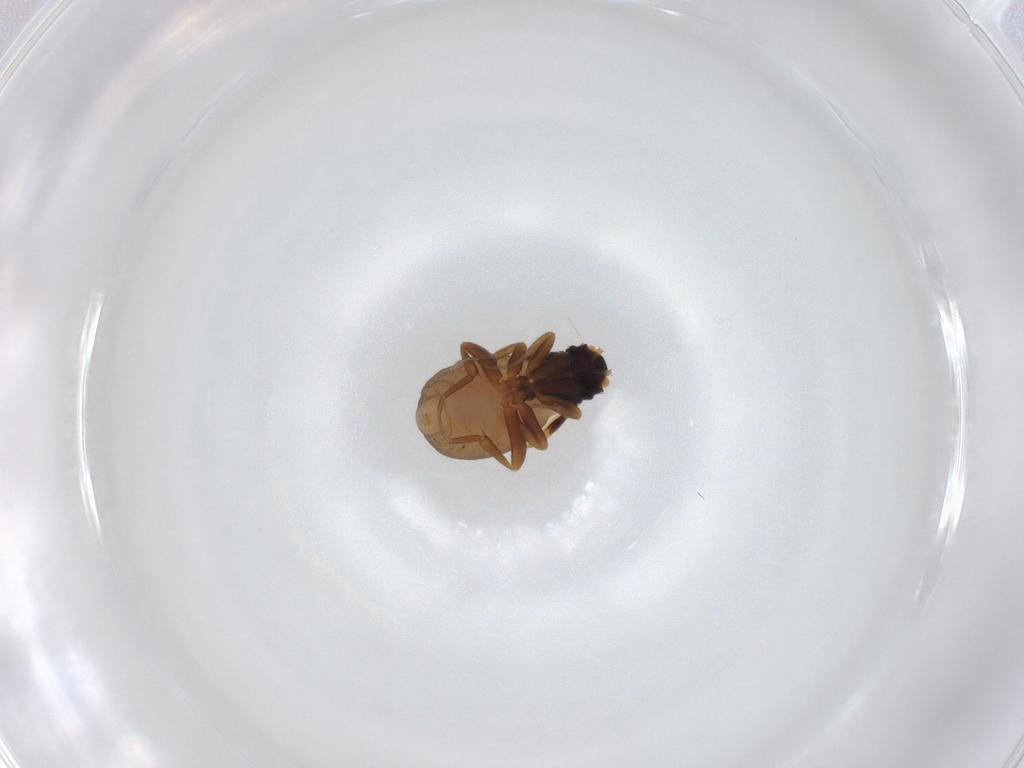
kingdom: Animalia
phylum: Arthropoda
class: Insecta
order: Diptera
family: Phoridae
